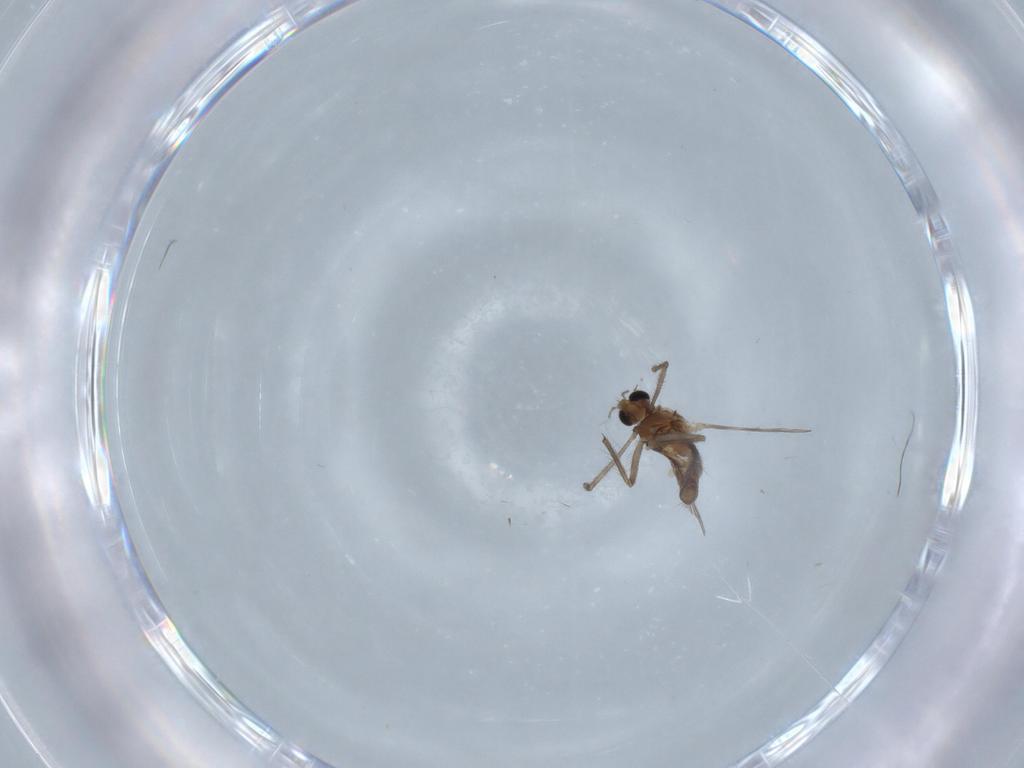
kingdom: Animalia
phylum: Arthropoda
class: Insecta
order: Diptera
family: Chironomidae
